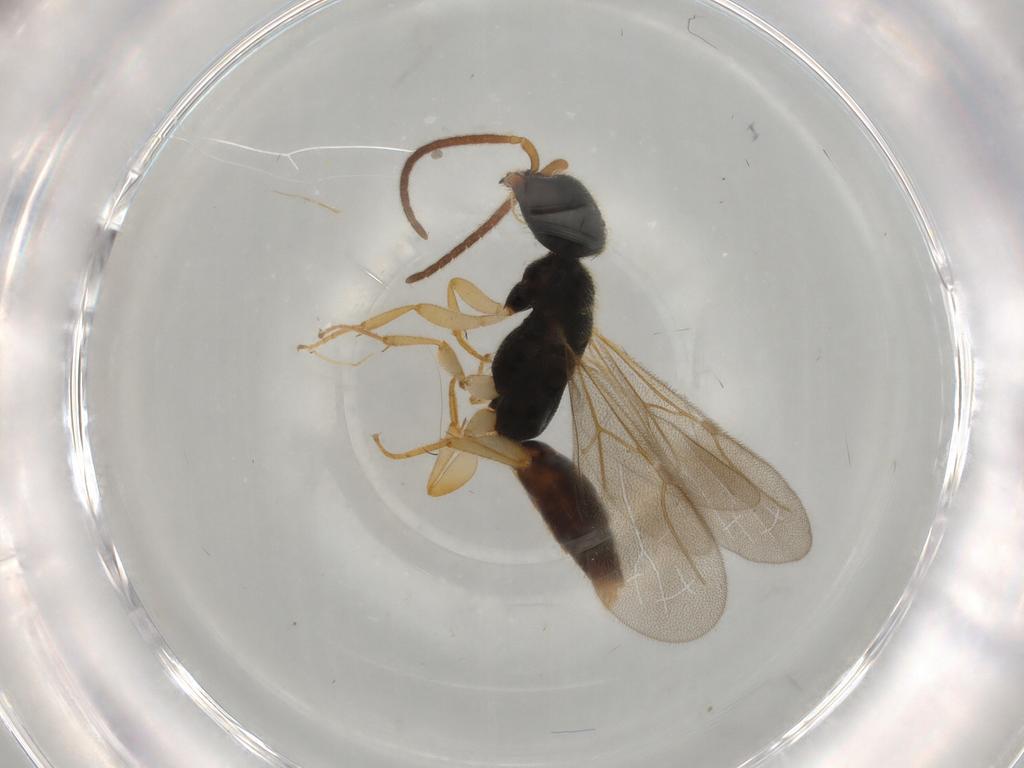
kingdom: Animalia
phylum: Arthropoda
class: Insecta
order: Hymenoptera
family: Bethylidae
